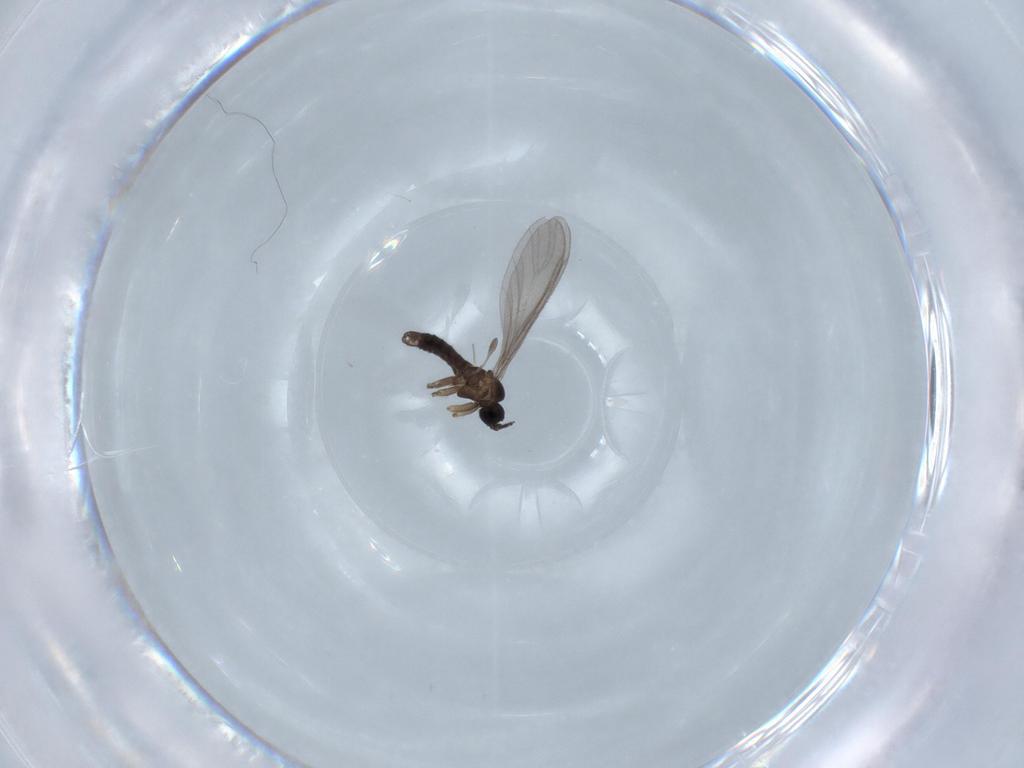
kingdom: Animalia
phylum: Arthropoda
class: Insecta
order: Diptera
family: Sciaridae
